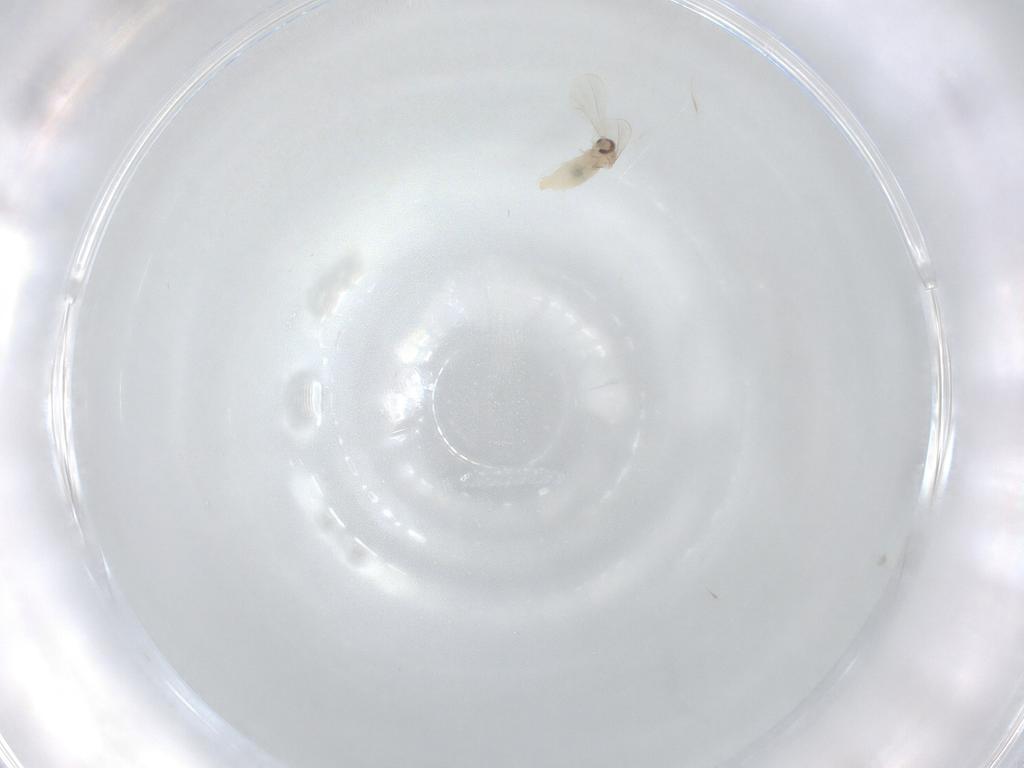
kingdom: Animalia
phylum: Arthropoda
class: Insecta
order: Diptera
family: Cecidomyiidae
